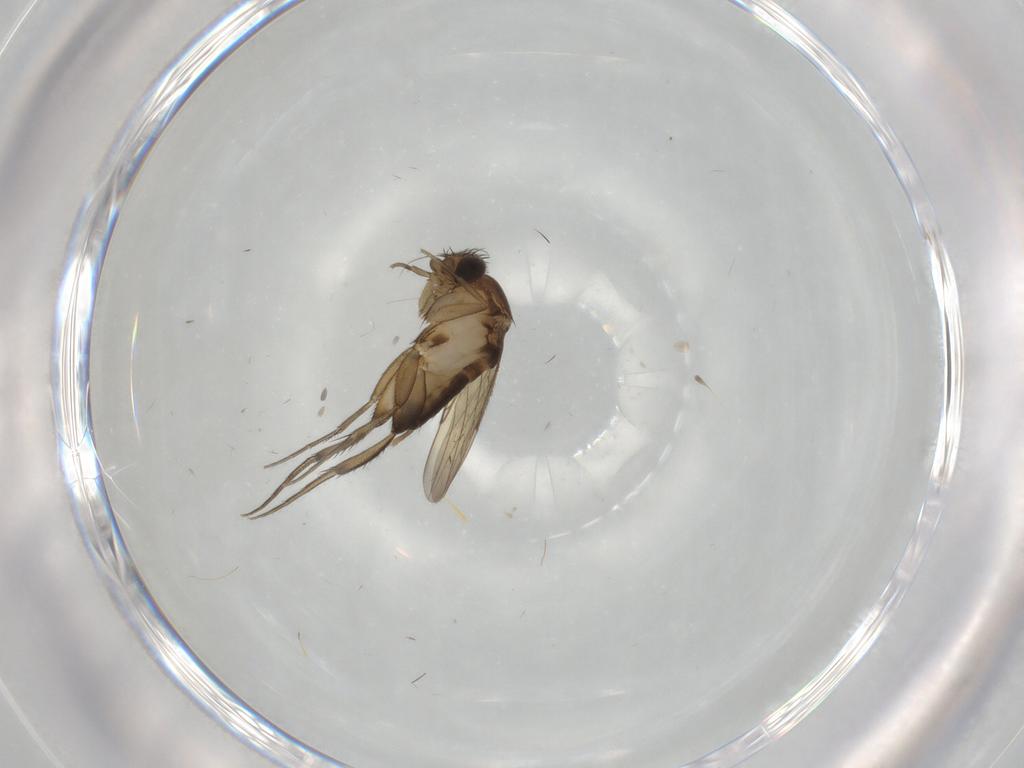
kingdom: Animalia
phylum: Arthropoda
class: Insecta
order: Diptera
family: Phoridae
